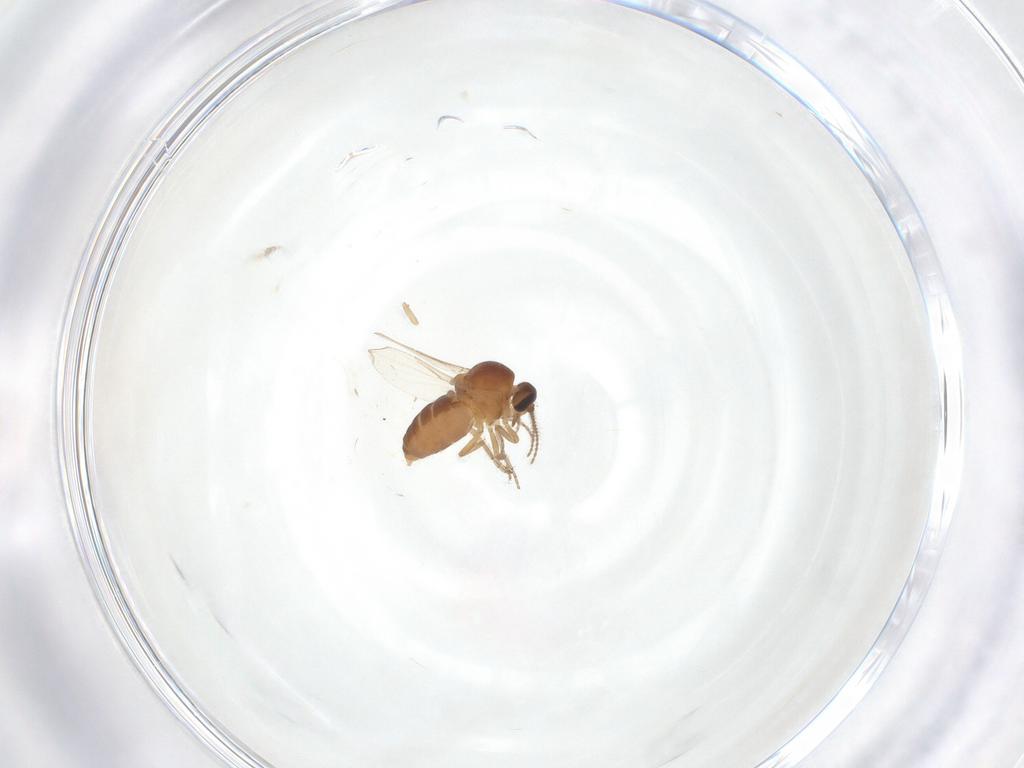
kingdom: Animalia
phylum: Arthropoda
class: Insecta
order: Diptera
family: Ceratopogonidae
